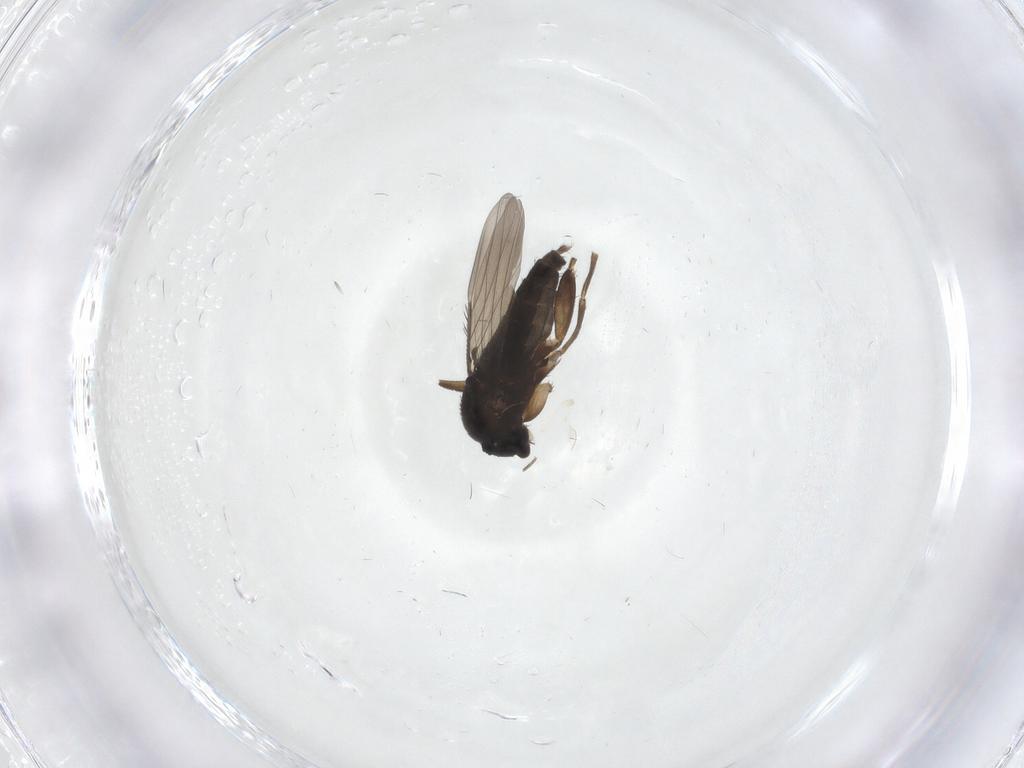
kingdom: Animalia
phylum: Arthropoda
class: Insecta
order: Diptera
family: Phoridae
